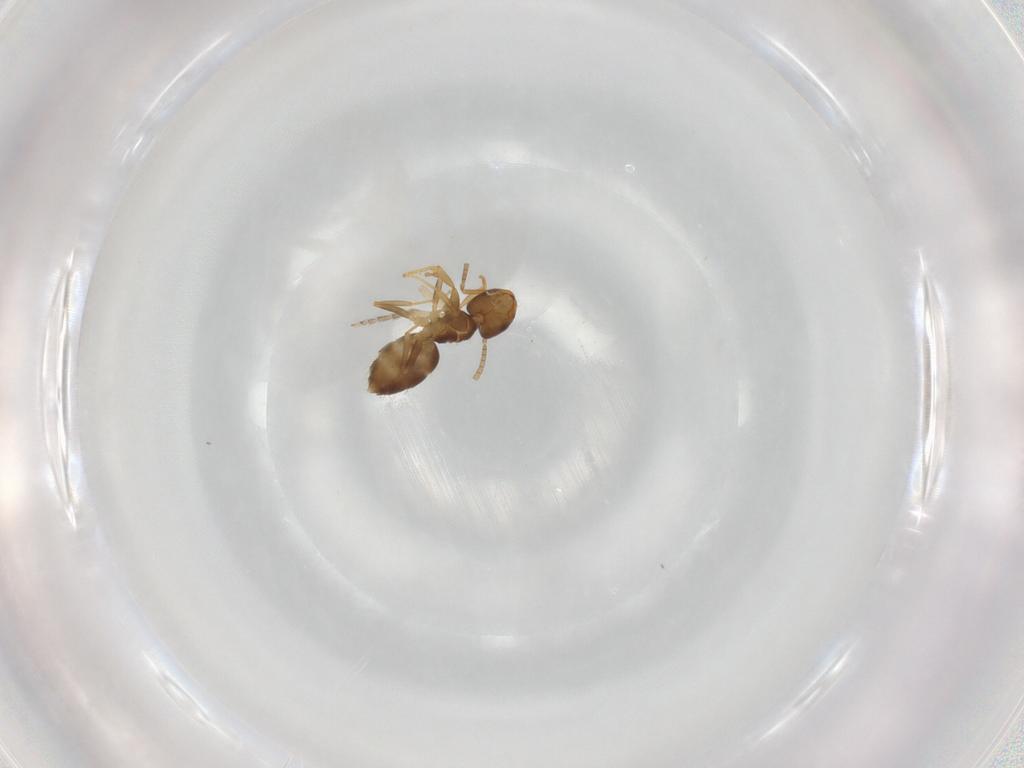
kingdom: Animalia
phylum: Arthropoda
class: Insecta
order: Hymenoptera
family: Formicidae
